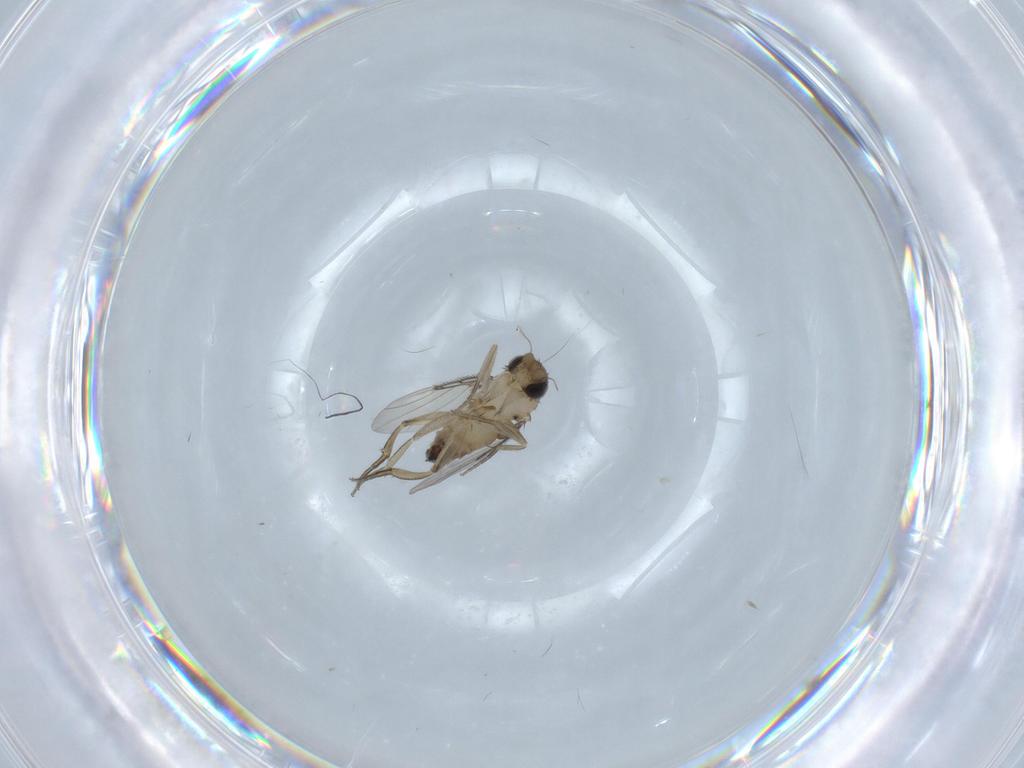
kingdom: Animalia
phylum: Arthropoda
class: Insecta
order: Diptera
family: Phoridae
